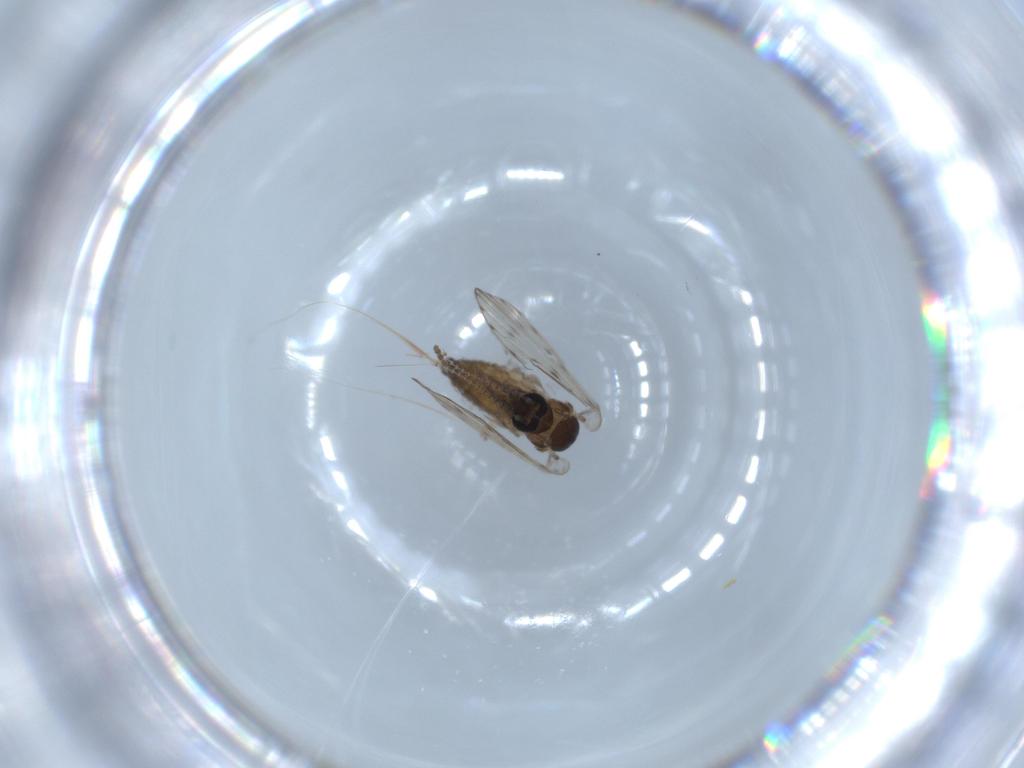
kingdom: Animalia
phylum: Arthropoda
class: Insecta
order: Diptera
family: Psychodidae
